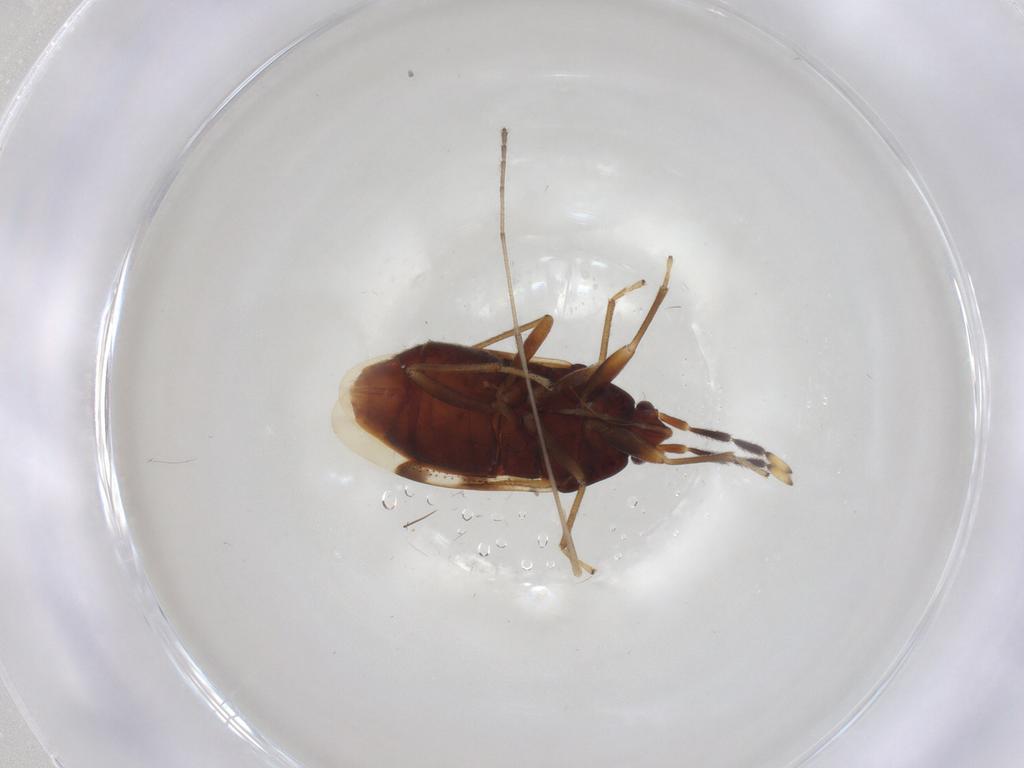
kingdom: Animalia
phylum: Arthropoda
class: Insecta
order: Hemiptera
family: Rhyparochromidae
